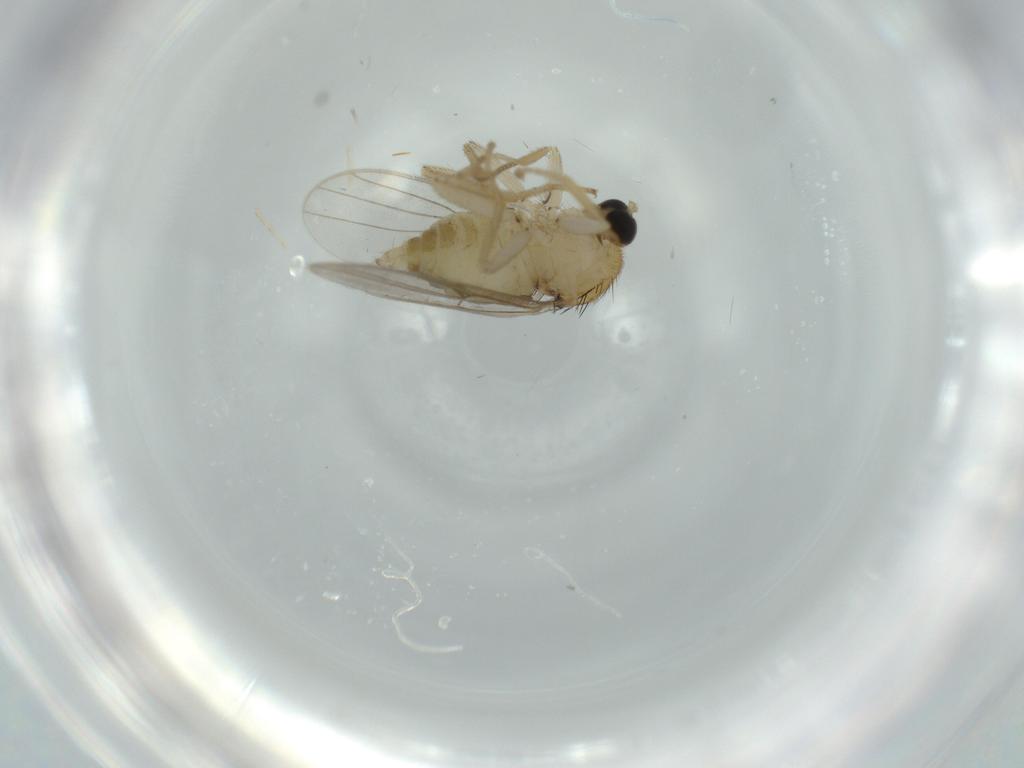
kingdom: Animalia
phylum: Arthropoda
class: Insecta
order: Diptera
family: Hybotidae
